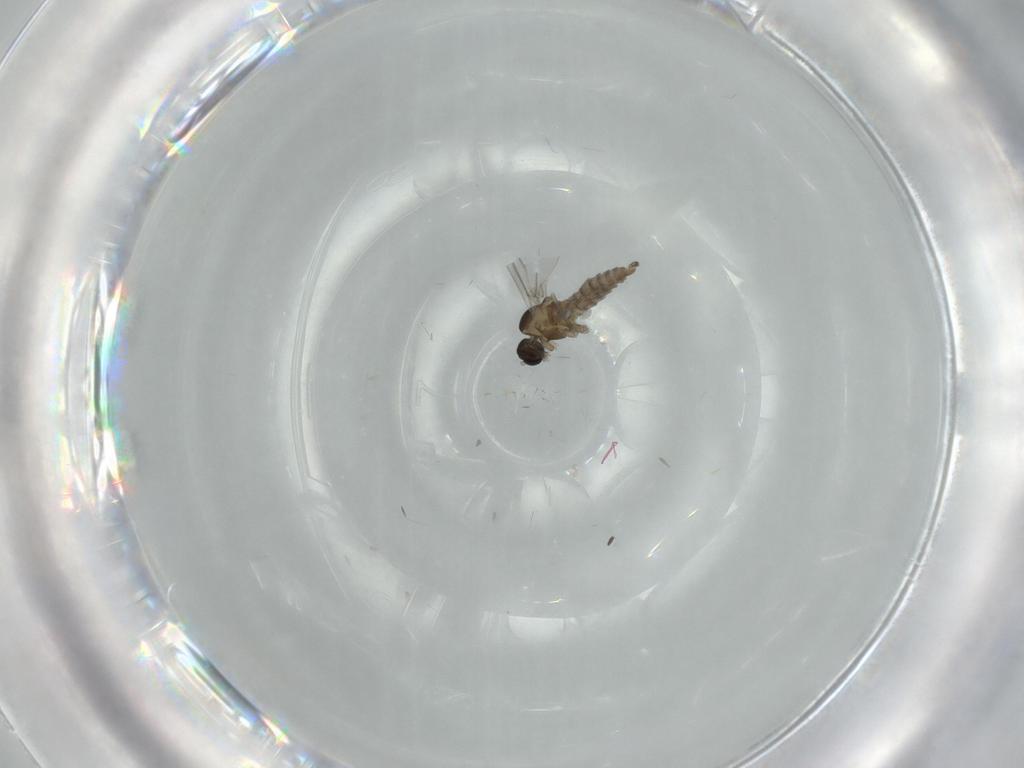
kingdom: Animalia
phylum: Arthropoda
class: Insecta
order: Diptera
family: Cecidomyiidae
